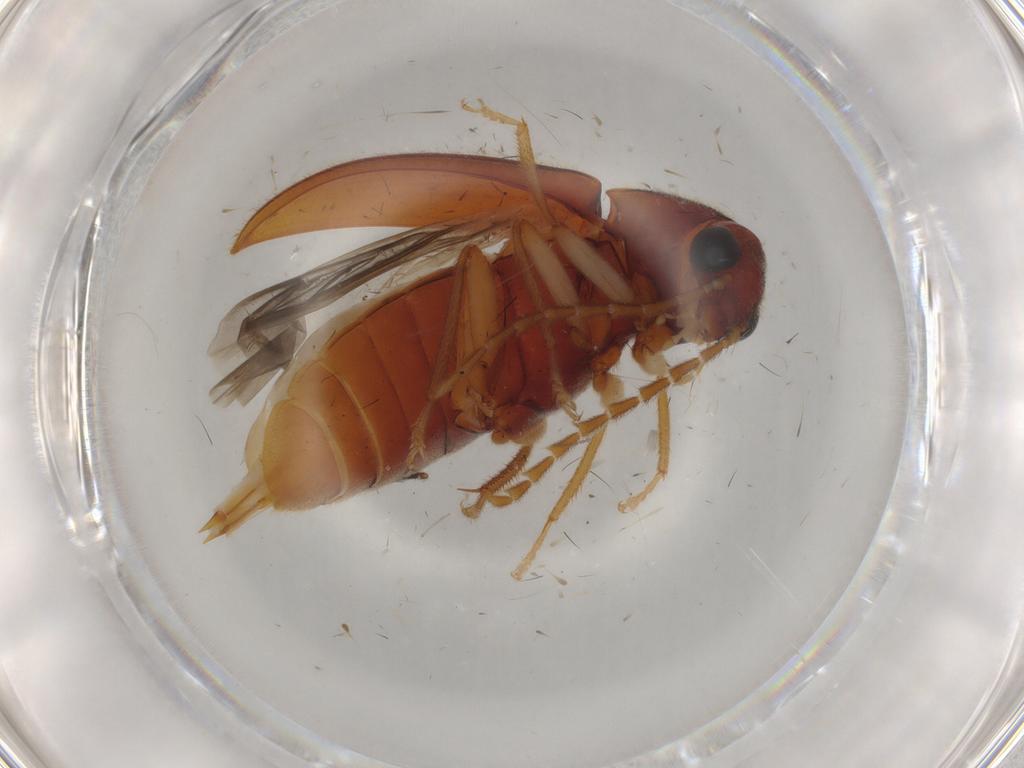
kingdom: Animalia
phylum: Arthropoda
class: Insecta
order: Coleoptera
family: Ptilodactylidae
